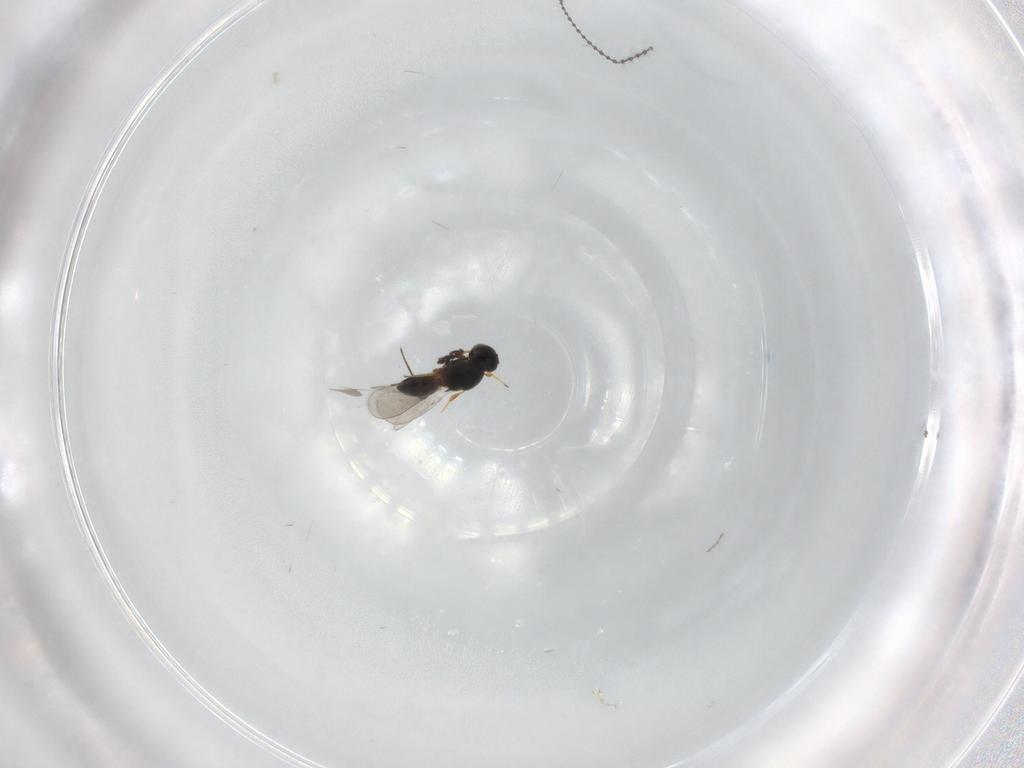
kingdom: Animalia
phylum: Arthropoda
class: Insecta
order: Hymenoptera
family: Platygastridae
